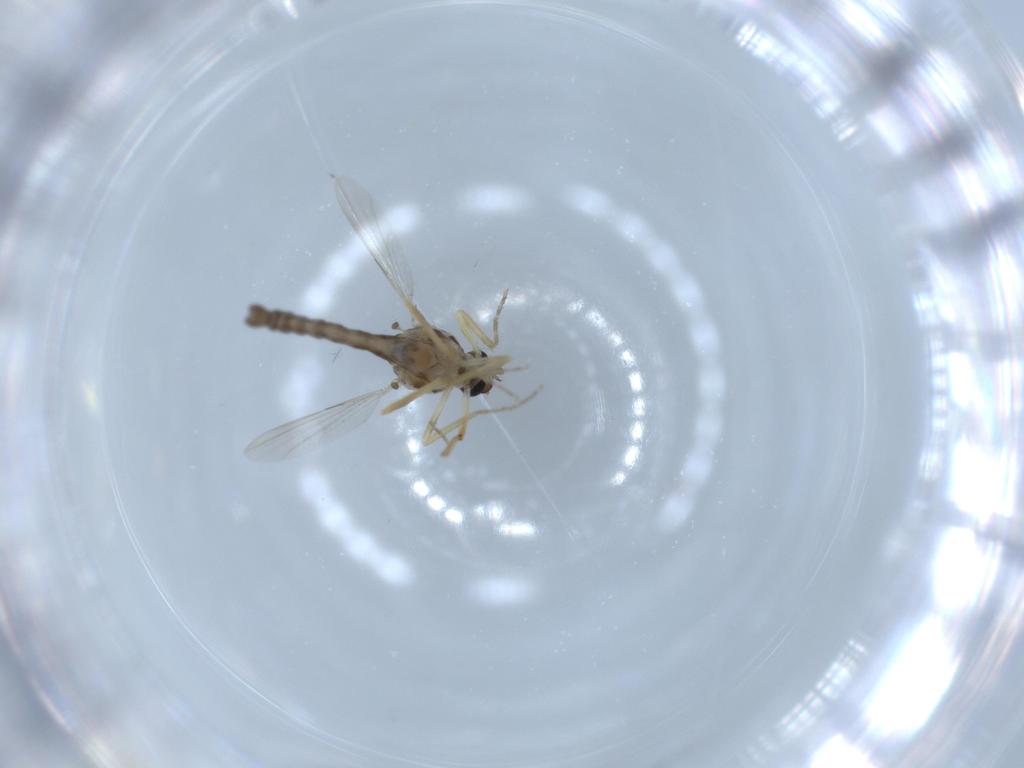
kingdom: Animalia
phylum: Arthropoda
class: Insecta
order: Diptera
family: Ceratopogonidae
